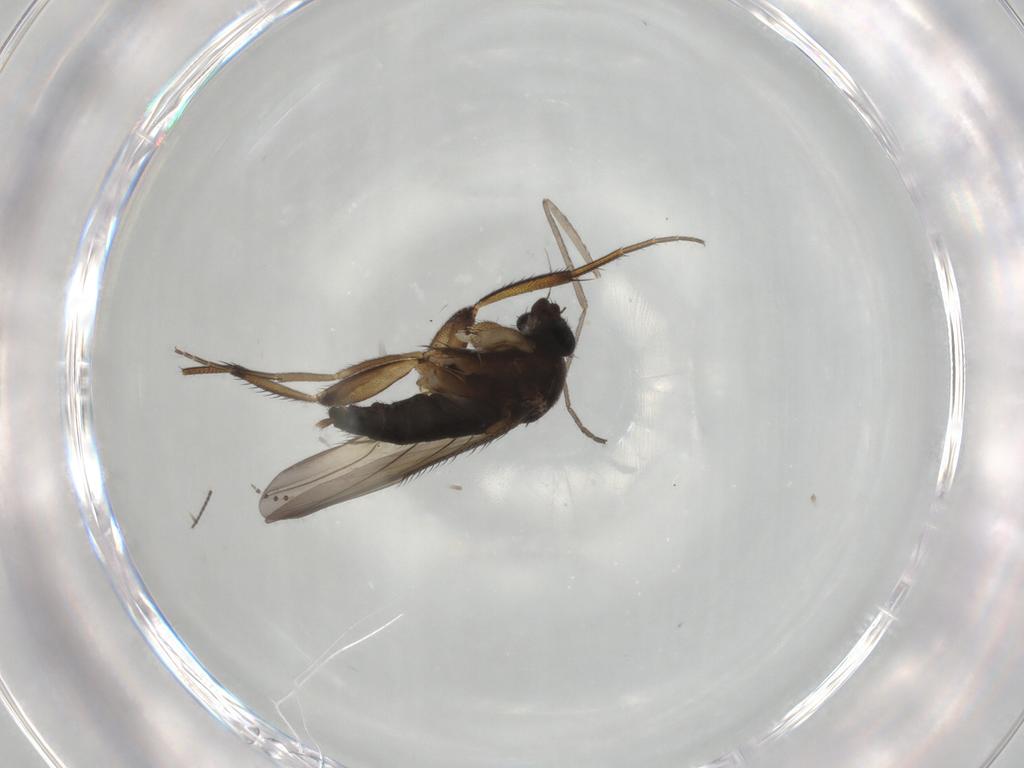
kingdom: Animalia
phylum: Arthropoda
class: Insecta
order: Diptera
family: Phoridae
